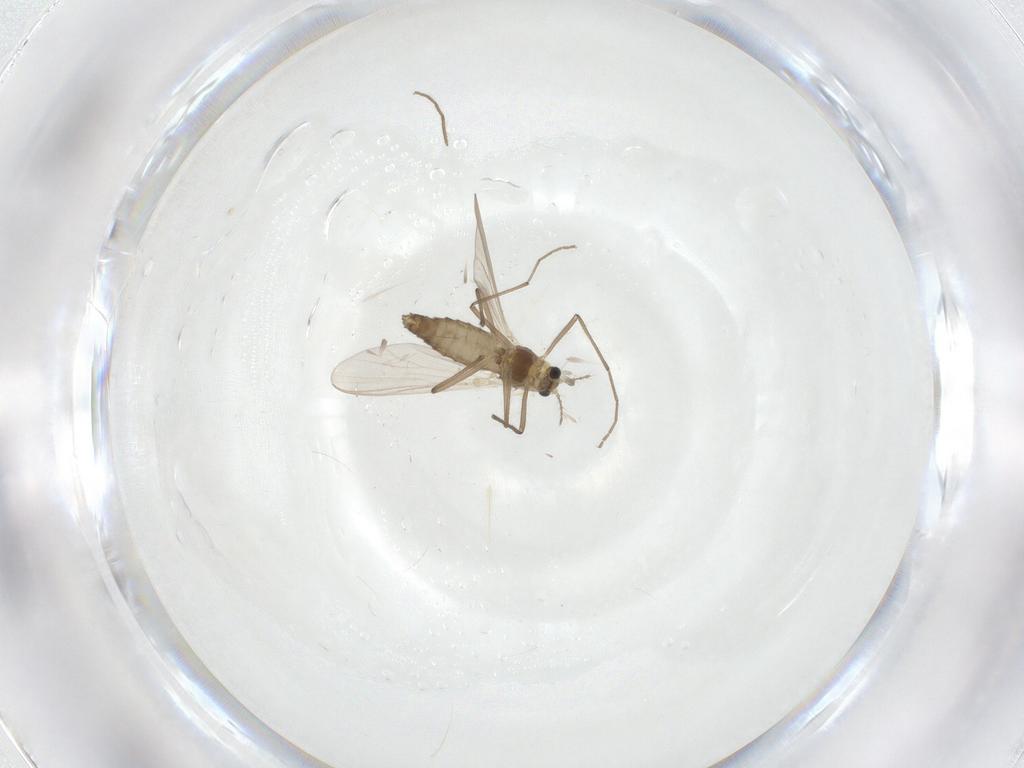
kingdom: Animalia
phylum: Arthropoda
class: Insecta
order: Diptera
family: Chironomidae
